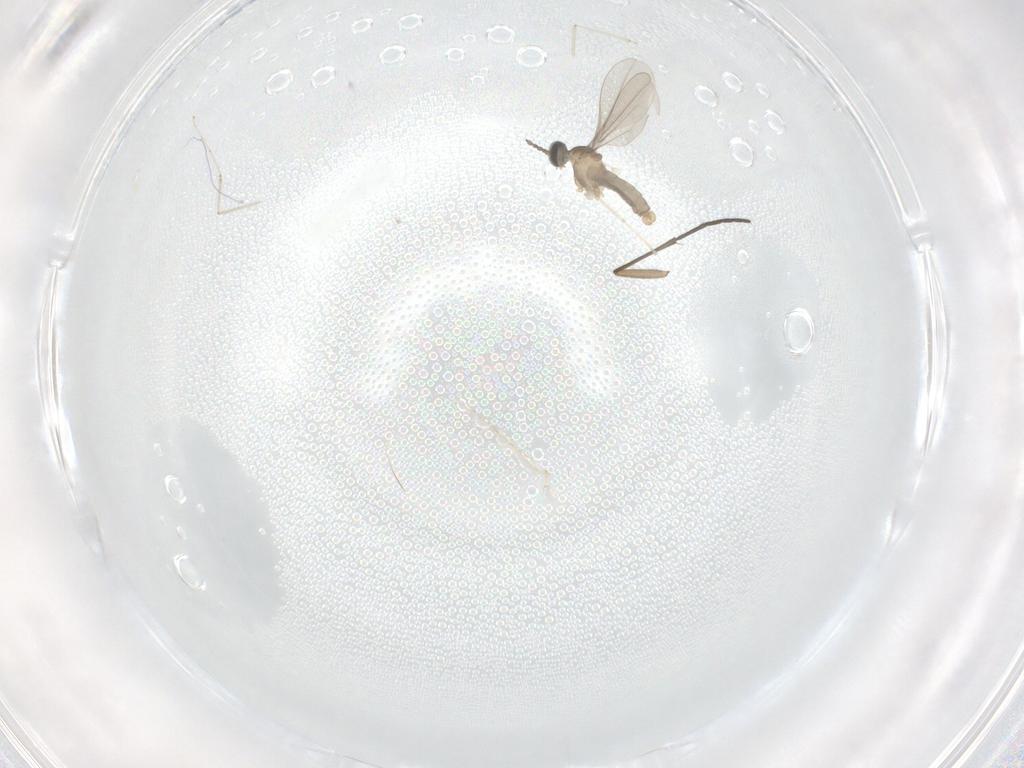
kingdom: Animalia
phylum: Arthropoda
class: Insecta
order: Diptera
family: Cecidomyiidae
